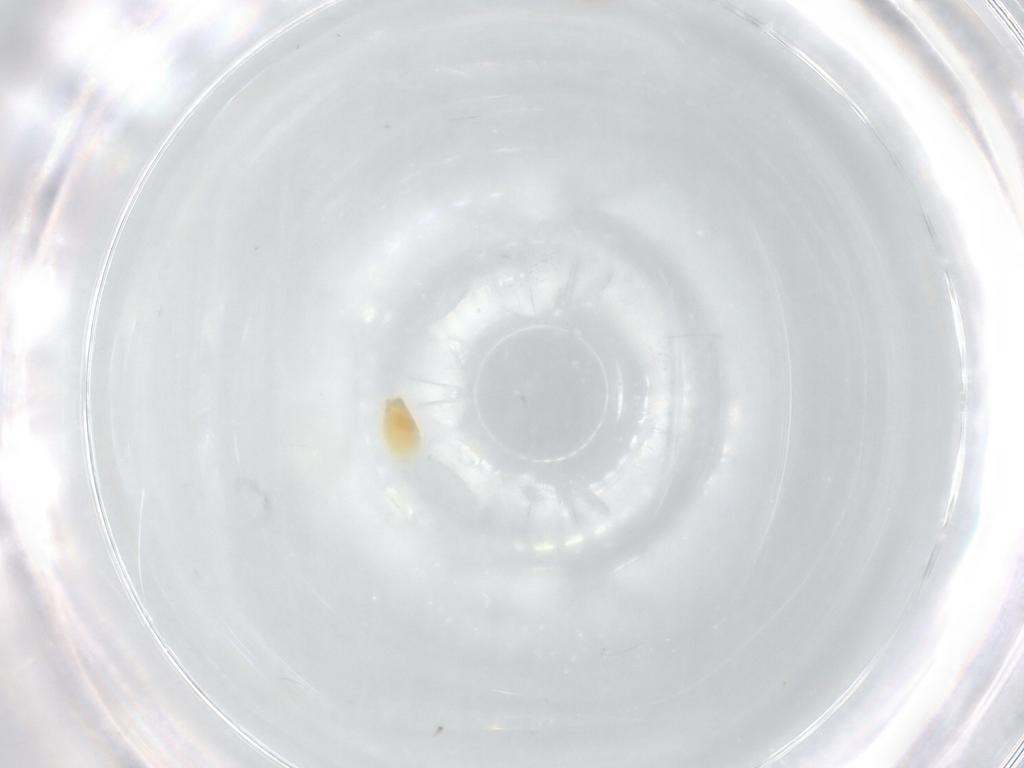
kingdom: Animalia
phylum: Arthropoda
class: Insecta
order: Hemiptera
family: Aleyrodidae
